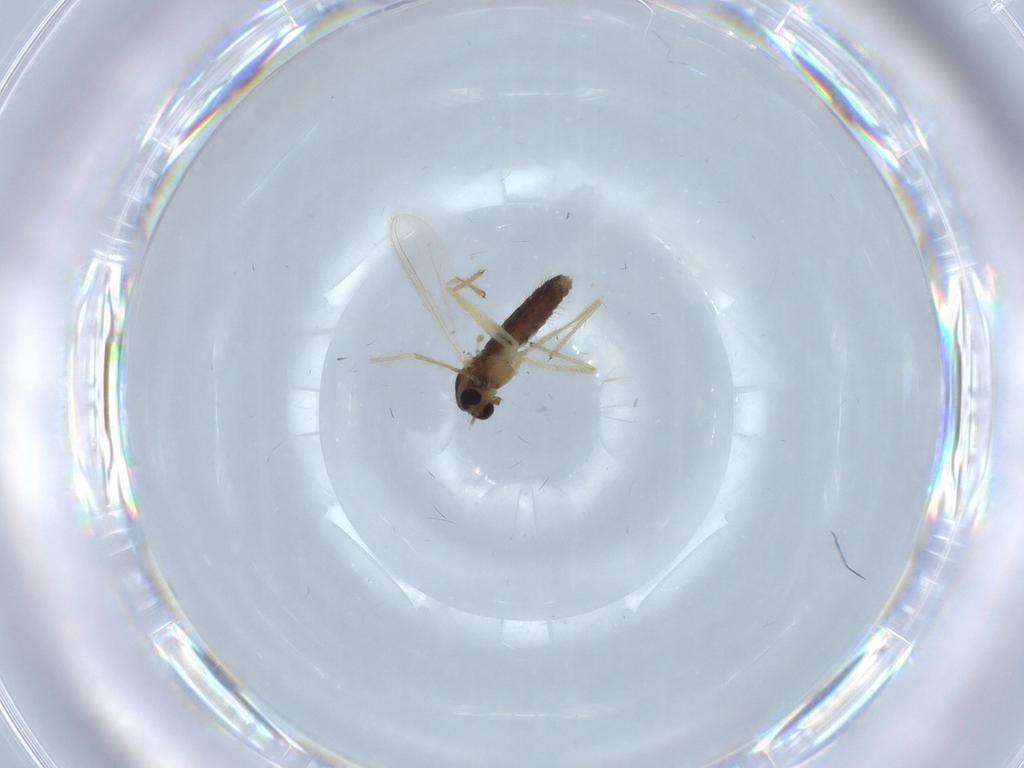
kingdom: Animalia
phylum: Arthropoda
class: Insecta
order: Diptera
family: Chironomidae
